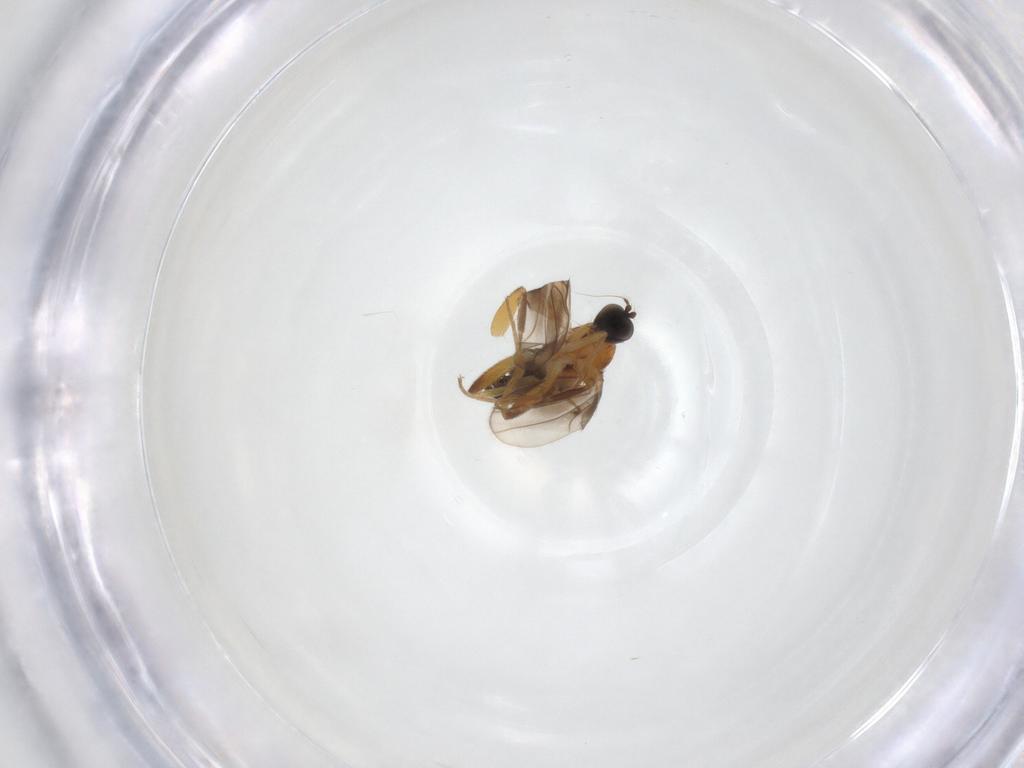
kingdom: Animalia
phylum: Arthropoda
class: Insecta
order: Diptera
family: Hybotidae
